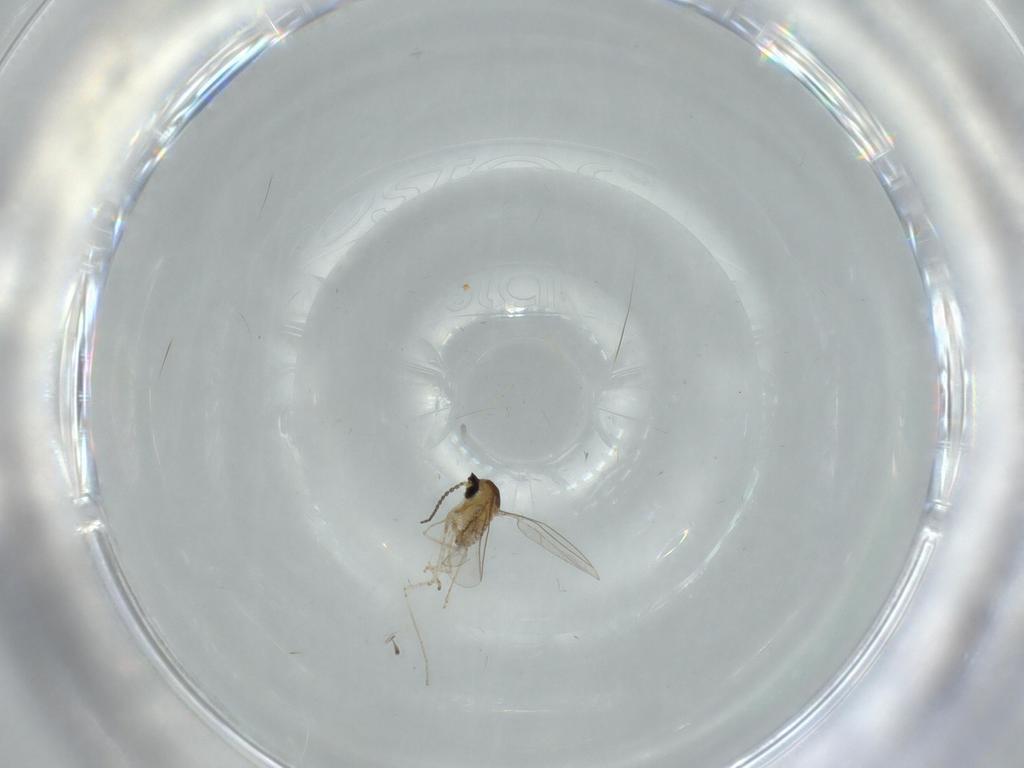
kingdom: Animalia
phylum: Arthropoda
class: Insecta
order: Diptera
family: Cecidomyiidae
